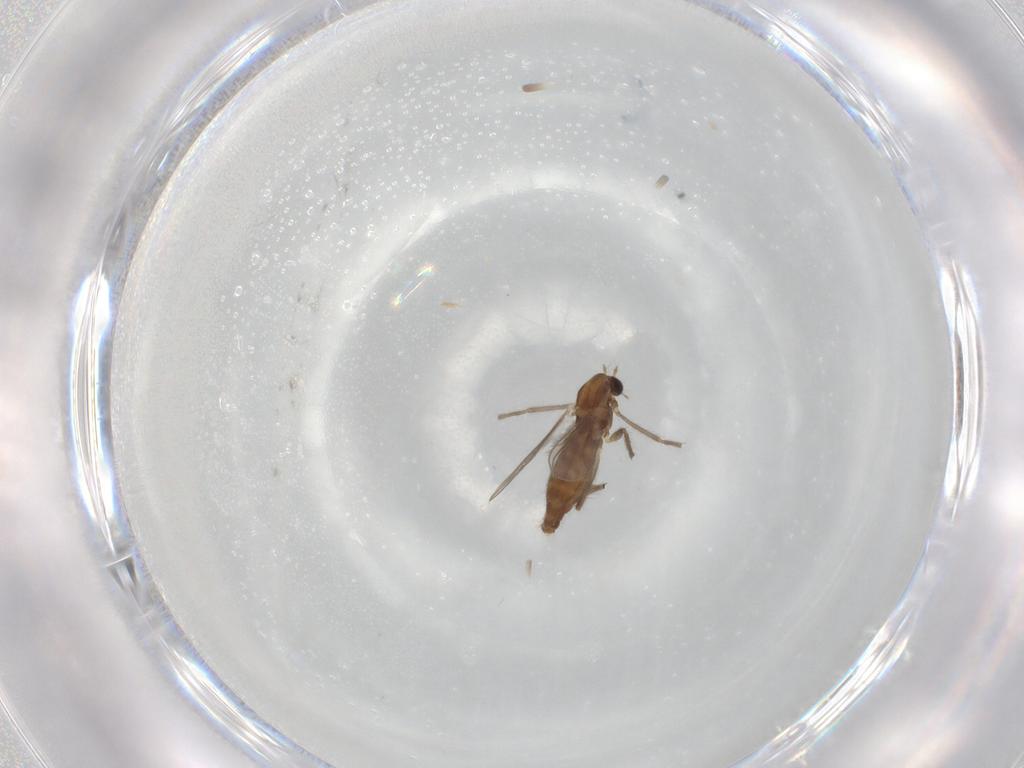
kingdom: Animalia
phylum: Arthropoda
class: Insecta
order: Diptera
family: Chironomidae
